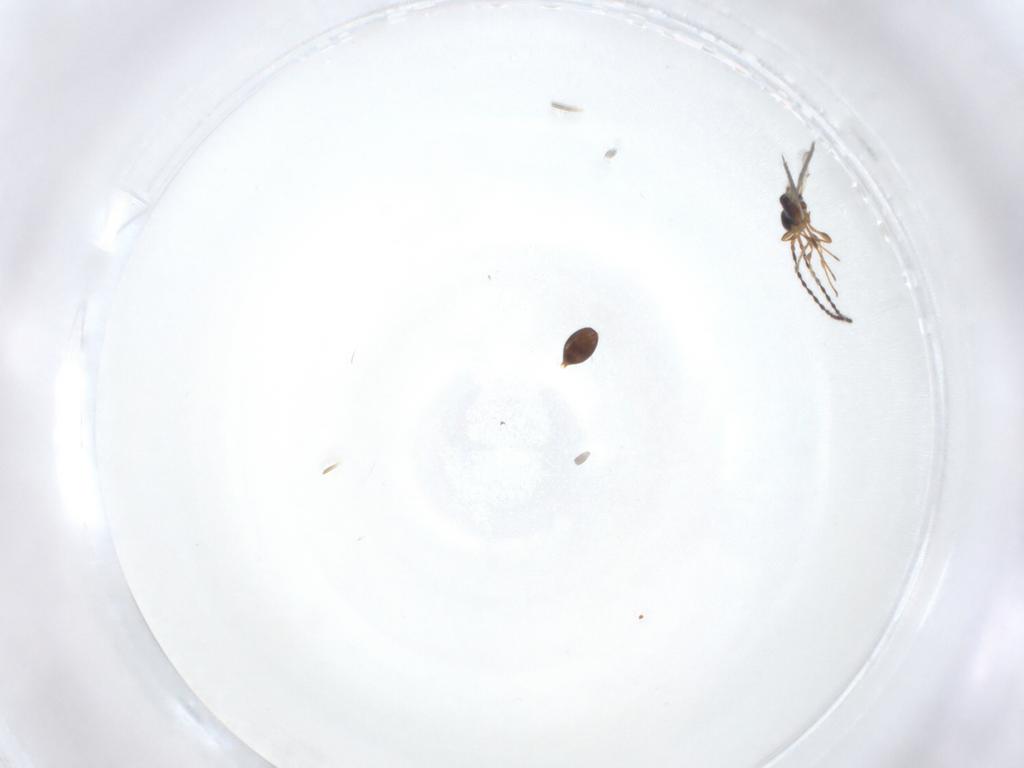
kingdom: Animalia
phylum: Arthropoda
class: Insecta
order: Hymenoptera
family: Diapriidae
